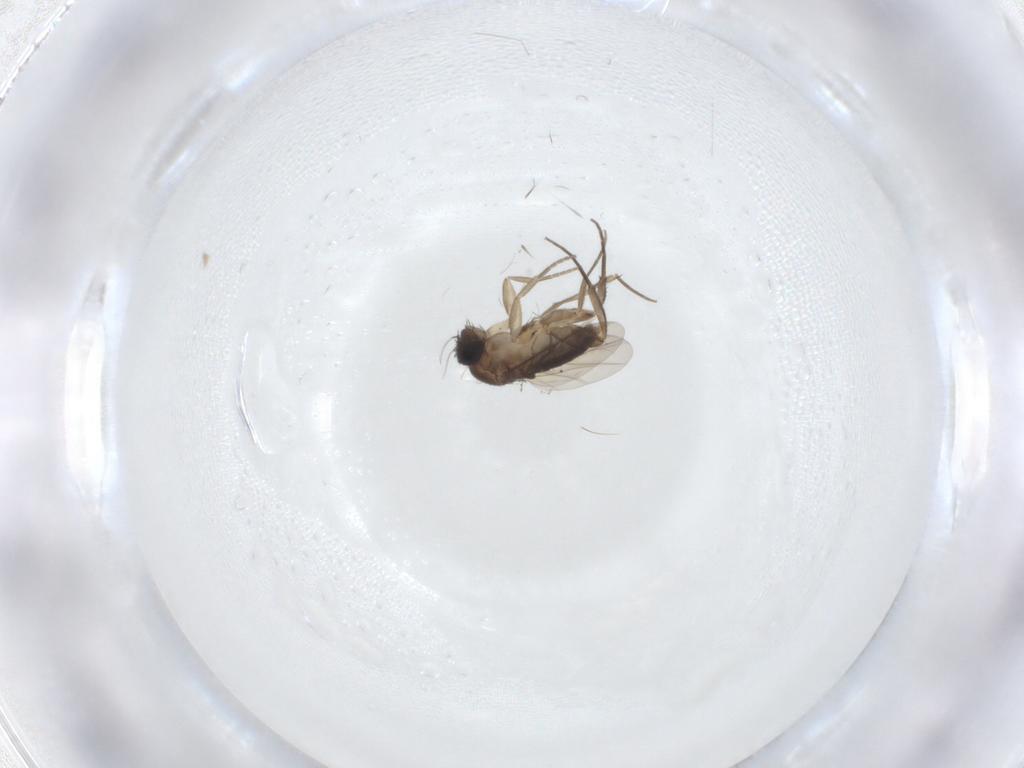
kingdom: Animalia
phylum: Arthropoda
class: Insecta
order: Diptera
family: Phoridae
